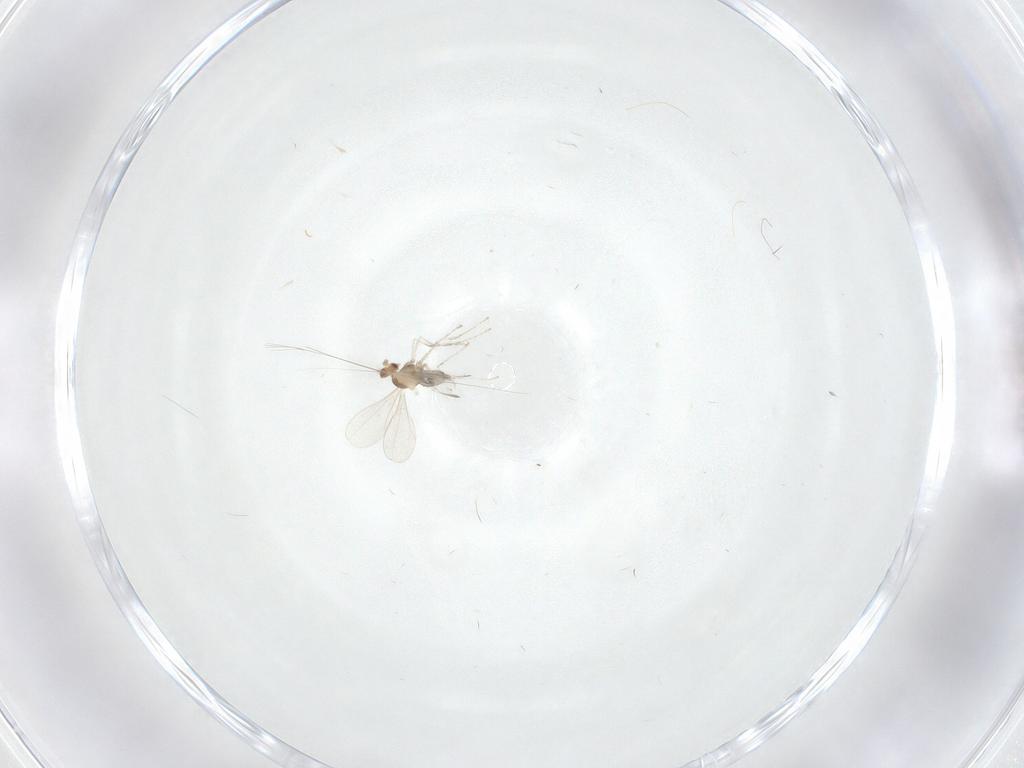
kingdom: Animalia
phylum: Arthropoda
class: Insecta
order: Diptera
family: Cecidomyiidae
